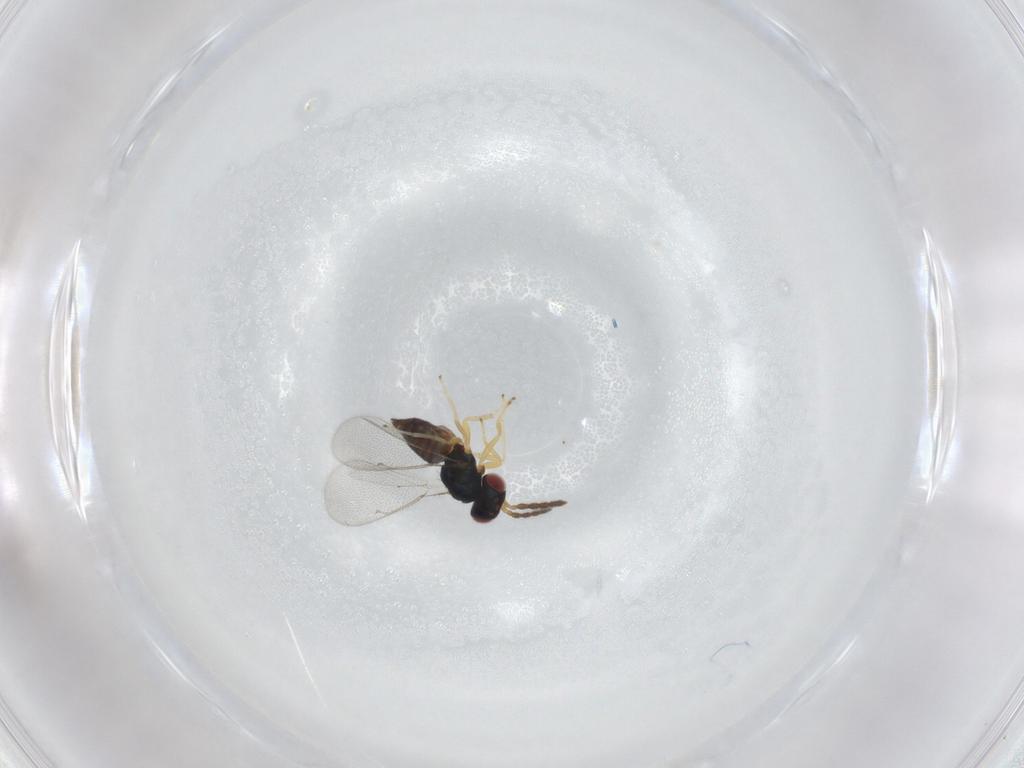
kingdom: Animalia
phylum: Arthropoda
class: Insecta
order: Hymenoptera
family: Eulophidae
